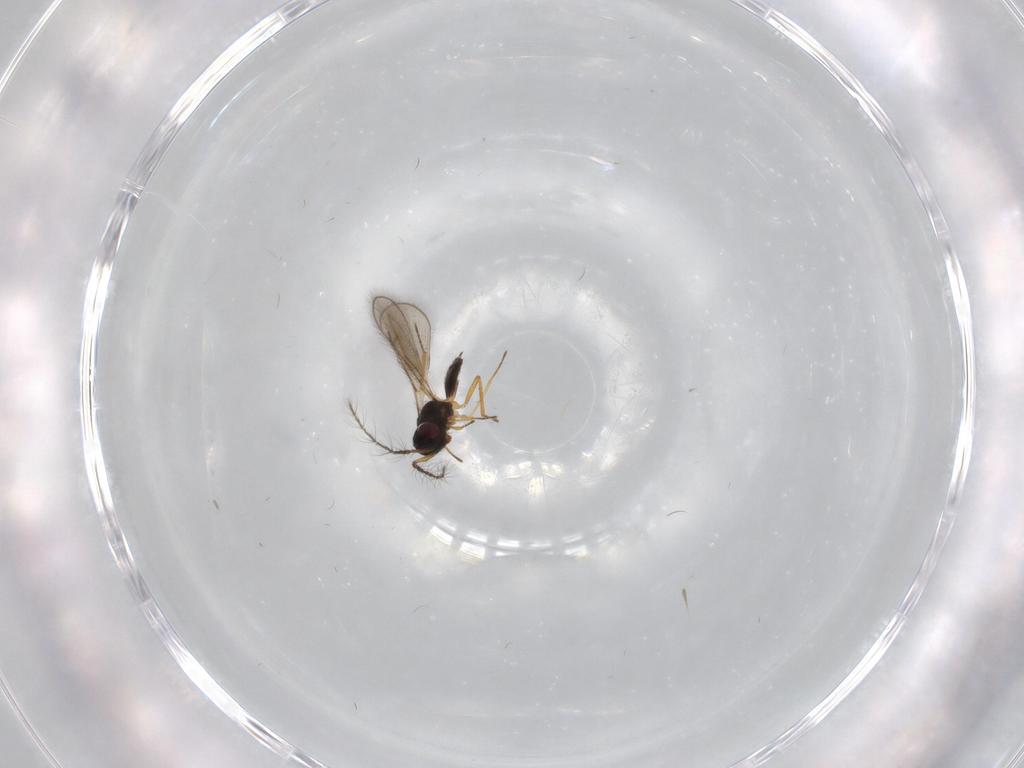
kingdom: Animalia
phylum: Arthropoda
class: Insecta
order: Hymenoptera
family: Eulophidae
